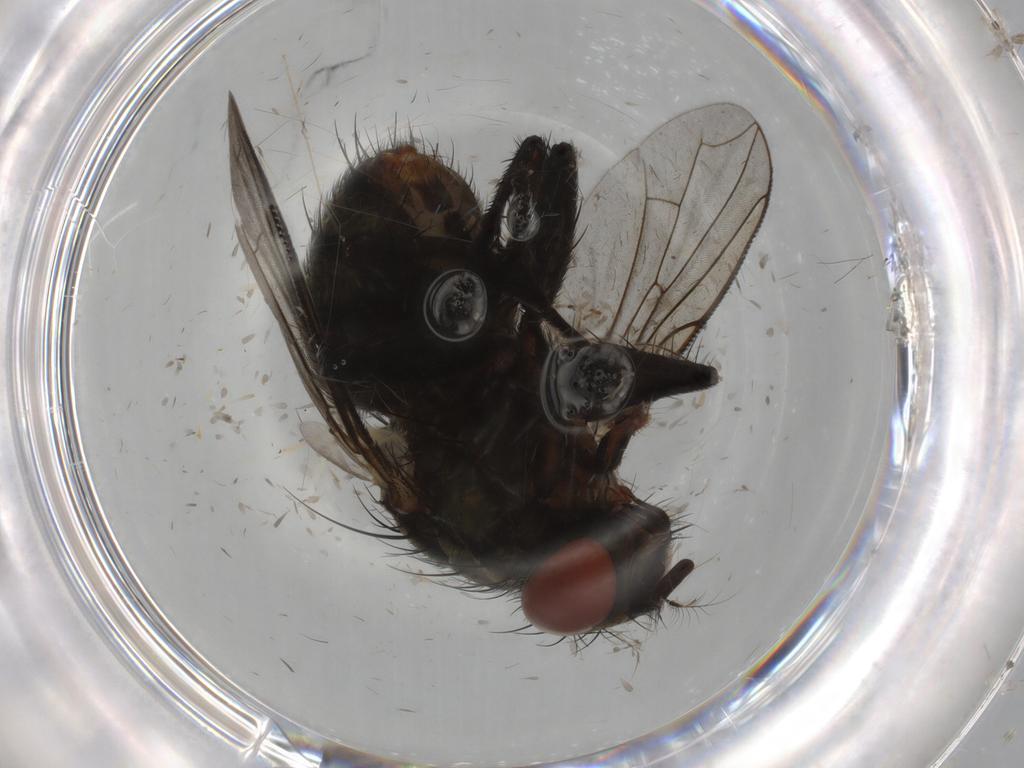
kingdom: Animalia
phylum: Arthropoda
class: Insecta
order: Diptera
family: Sarcophagidae
